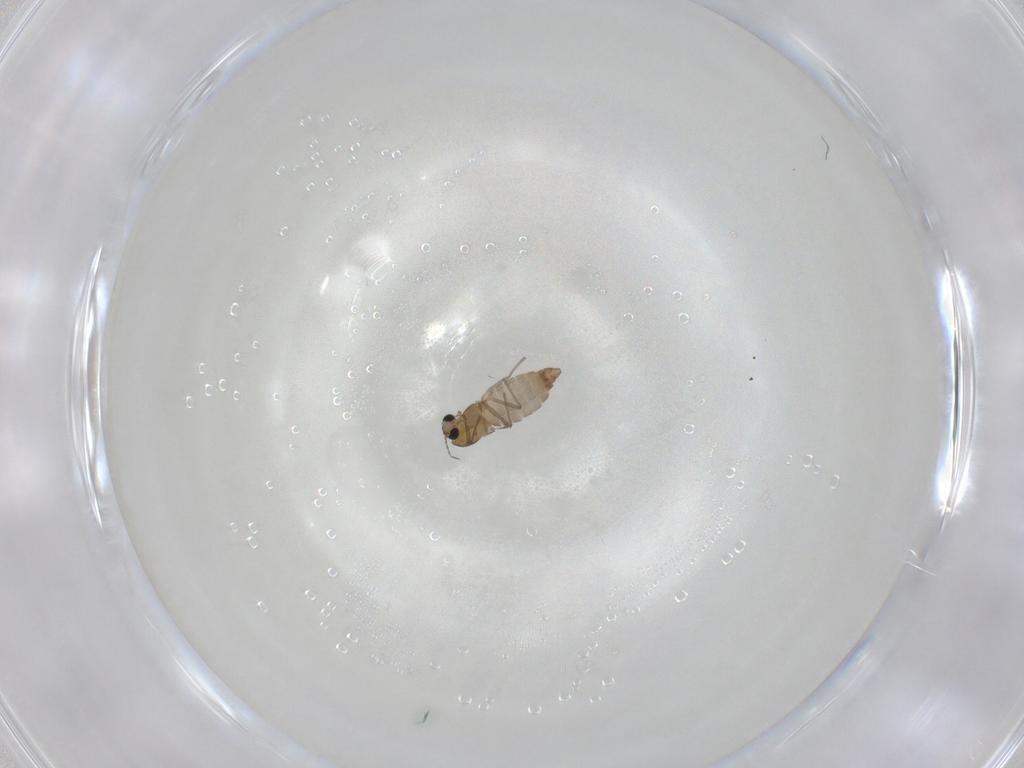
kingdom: Animalia
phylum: Arthropoda
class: Insecta
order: Diptera
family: Chironomidae
